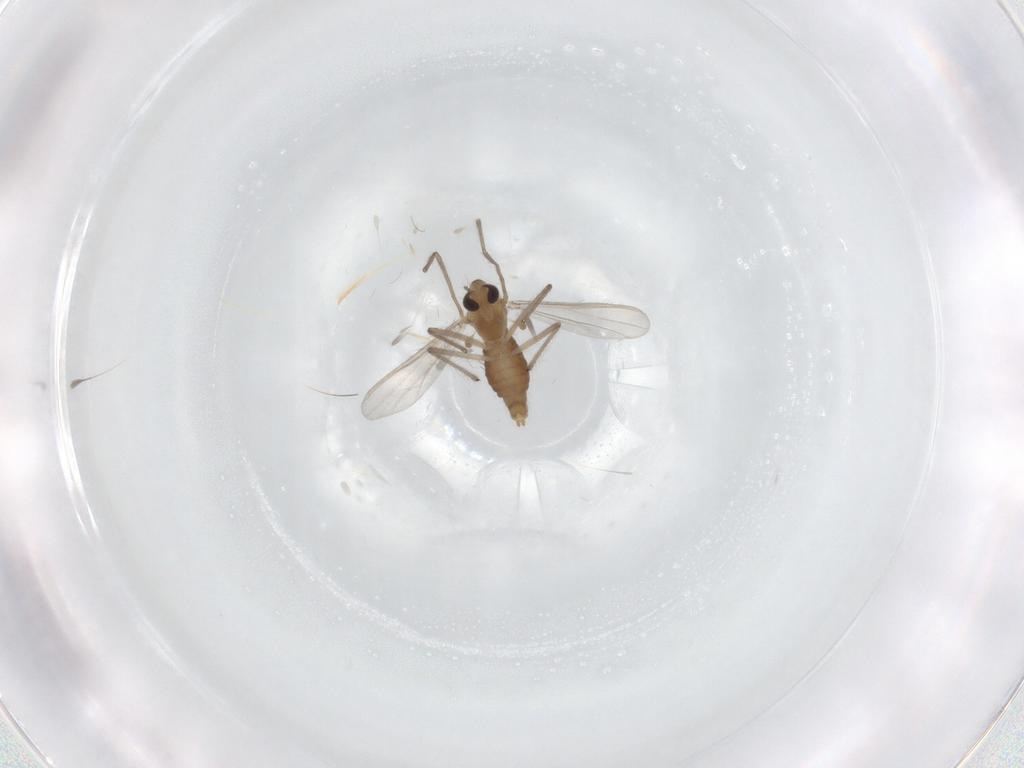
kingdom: Animalia
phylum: Arthropoda
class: Insecta
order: Diptera
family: Chironomidae
